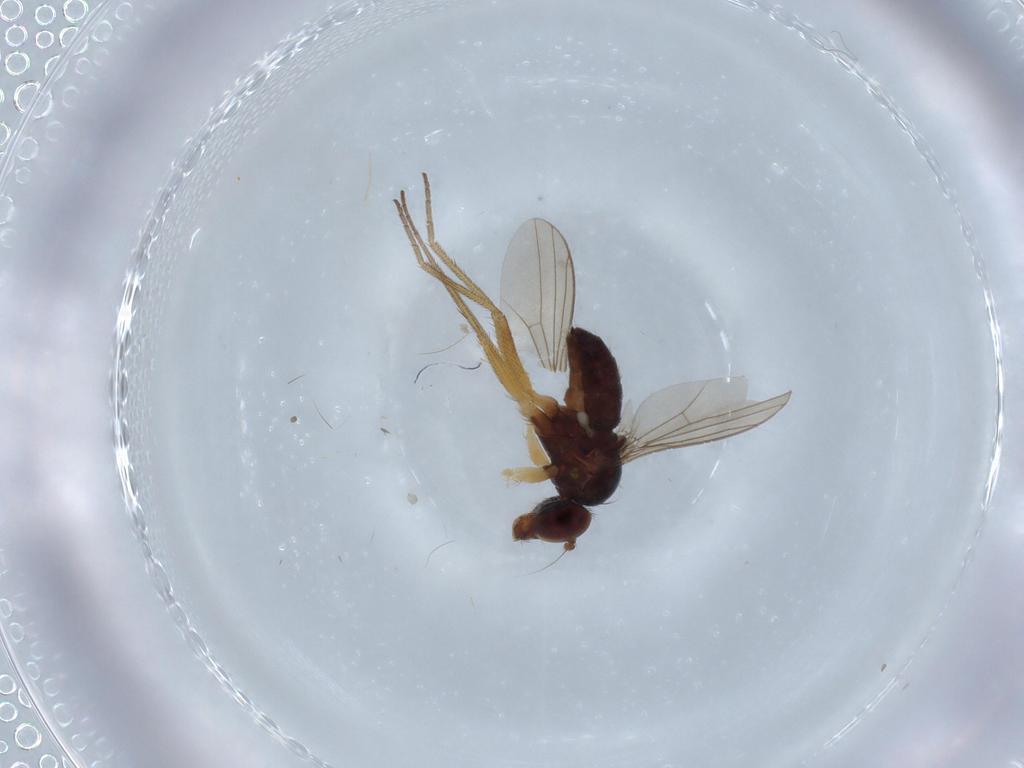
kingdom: Animalia
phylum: Arthropoda
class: Insecta
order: Diptera
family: Dolichopodidae
